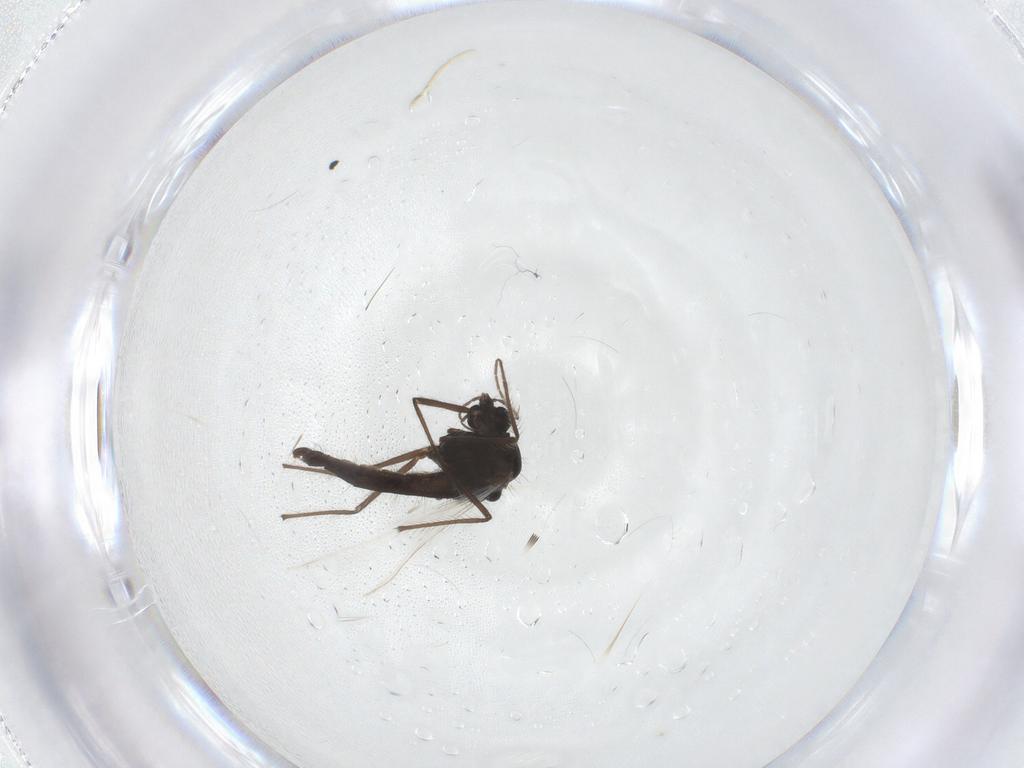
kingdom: Animalia
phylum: Arthropoda
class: Insecta
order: Diptera
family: Chironomidae
